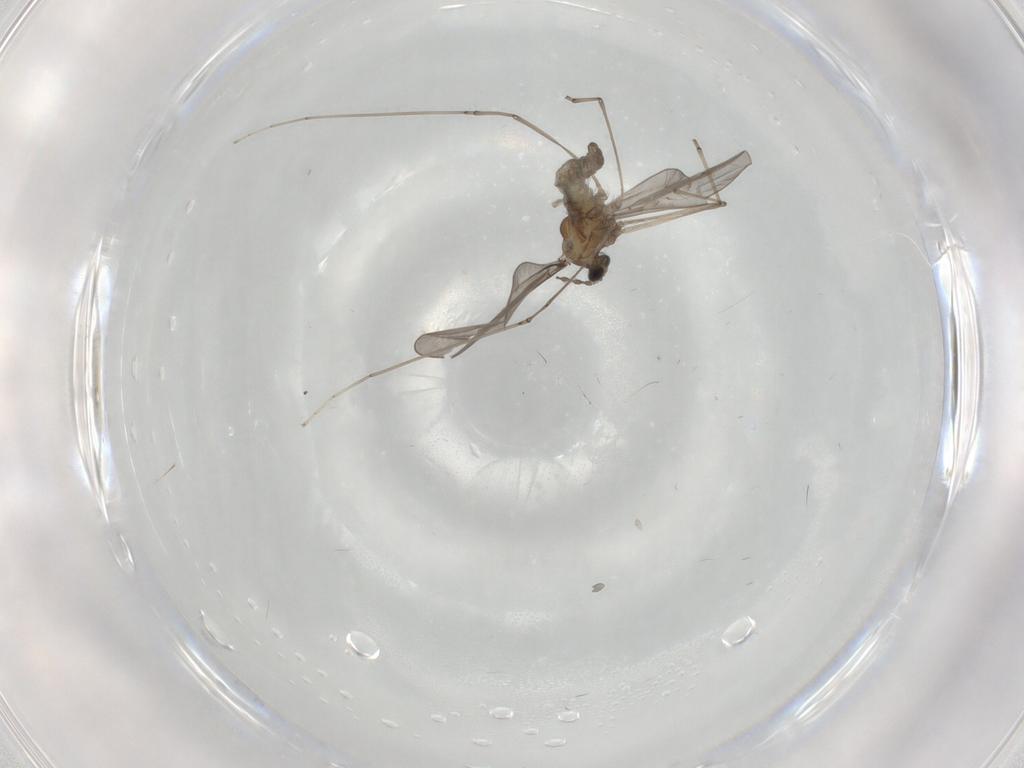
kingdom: Animalia
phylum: Arthropoda
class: Insecta
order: Diptera
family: Cecidomyiidae
